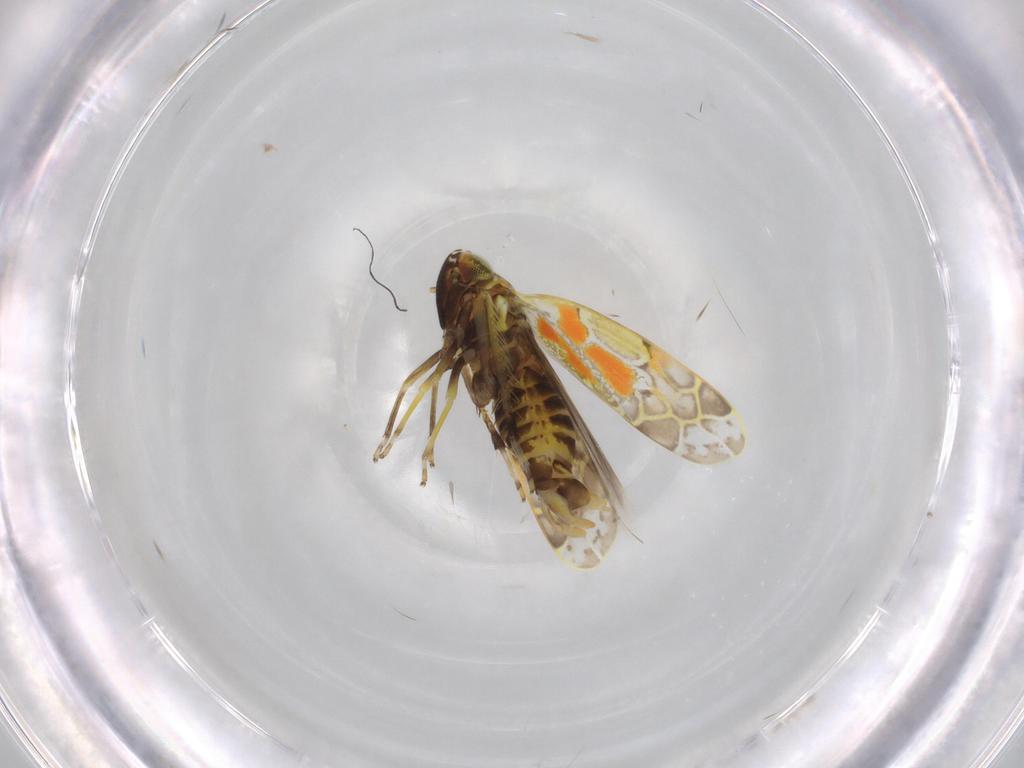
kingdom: Animalia
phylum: Arthropoda
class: Insecta
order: Hemiptera
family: Cicadellidae
